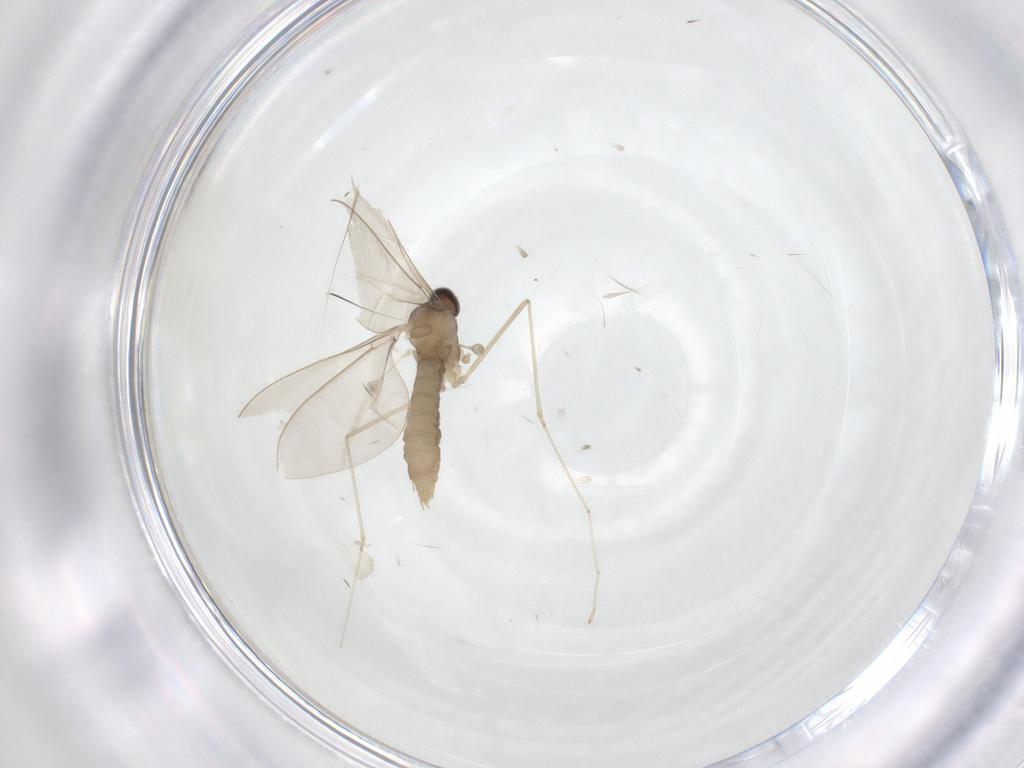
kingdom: Animalia
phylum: Arthropoda
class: Insecta
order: Diptera
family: Cecidomyiidae
